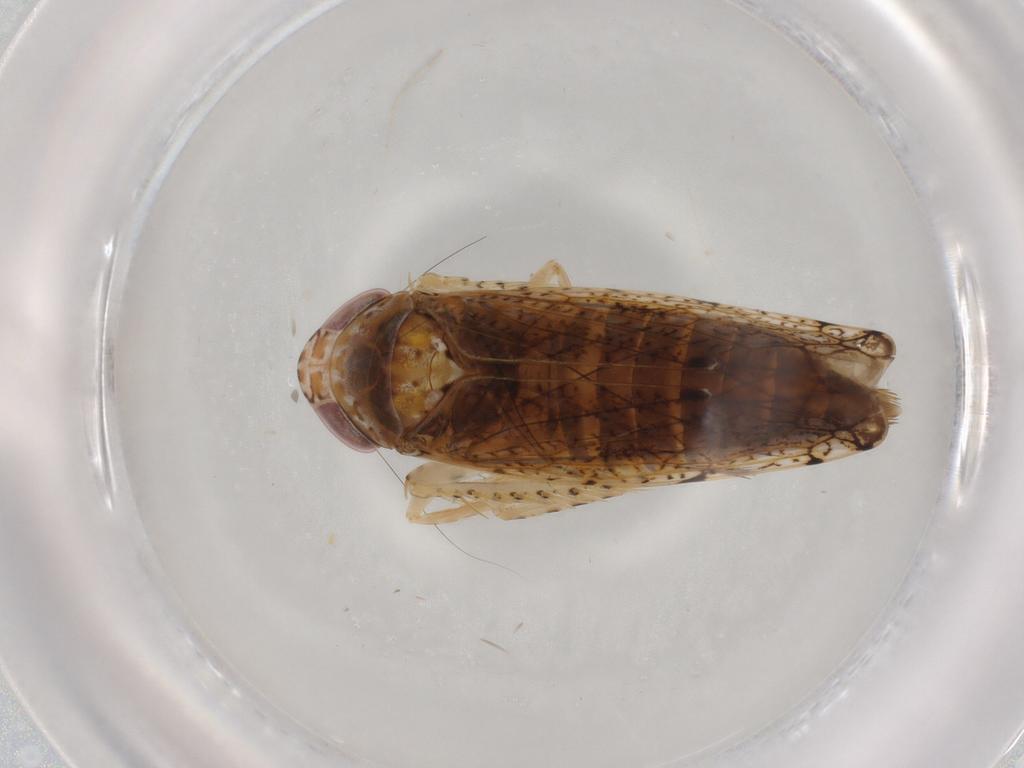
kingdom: Animalia
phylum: Arthropoda
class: Insecta
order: Hemiptera
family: Cicadellidae
